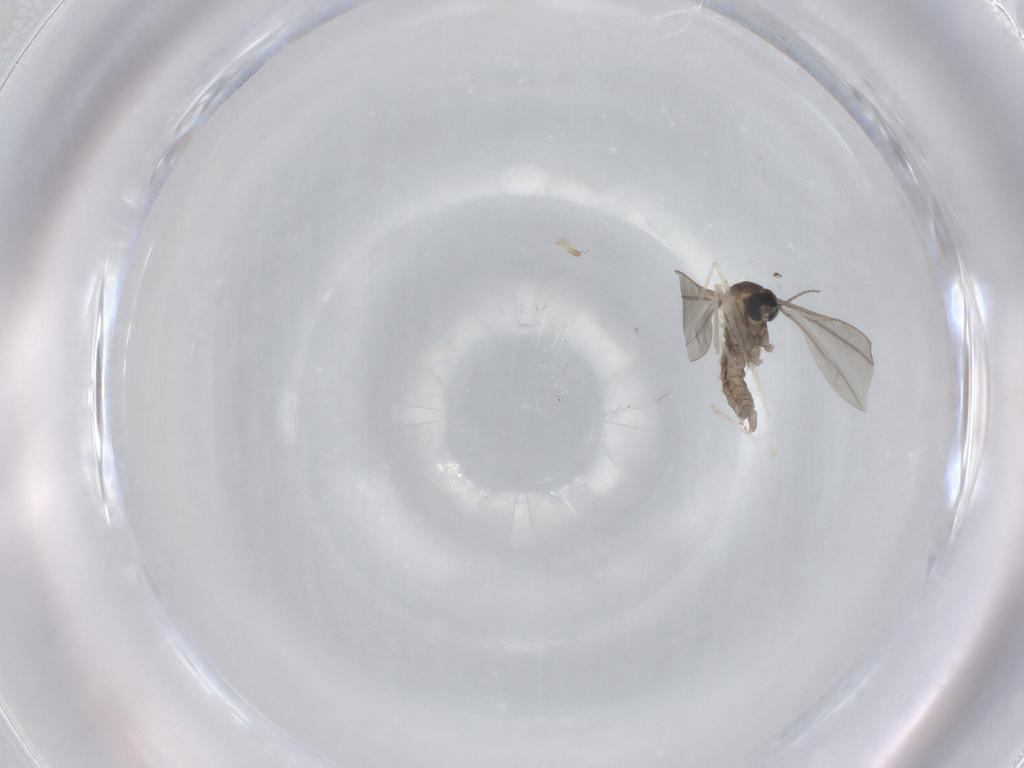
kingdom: Animalia
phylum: Arthropoda
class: Insecta
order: Diptera
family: Cecidomyiidae
